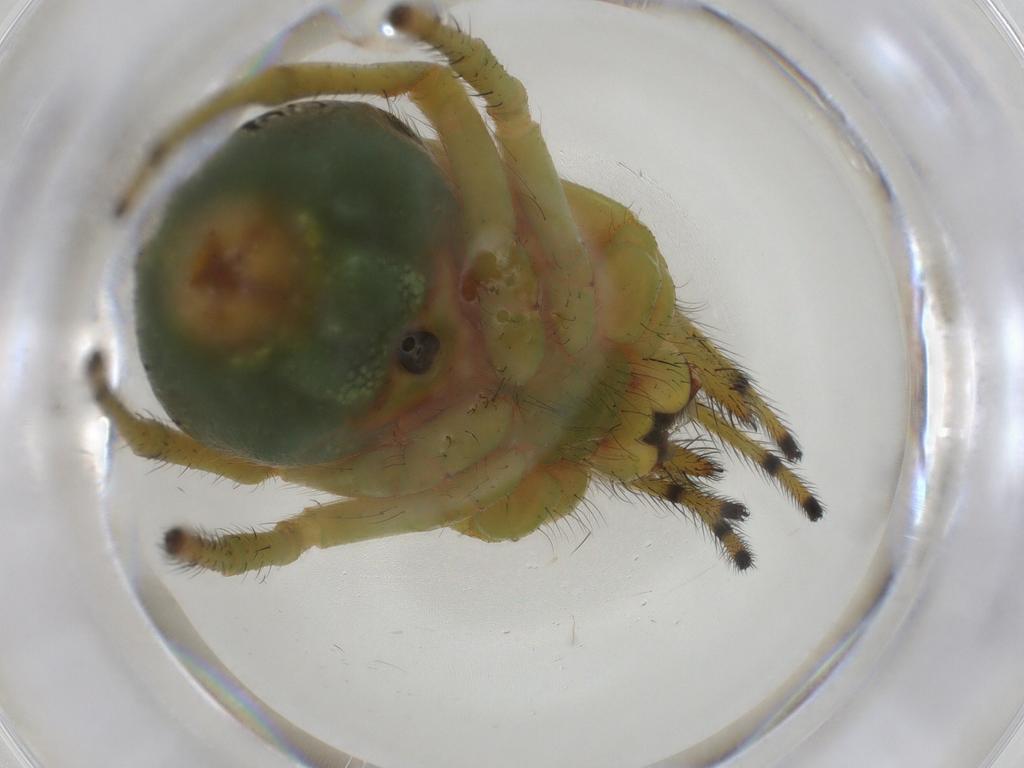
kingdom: Animalia
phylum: Arthropoda
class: Arachnida
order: Araneae
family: Araneidae
